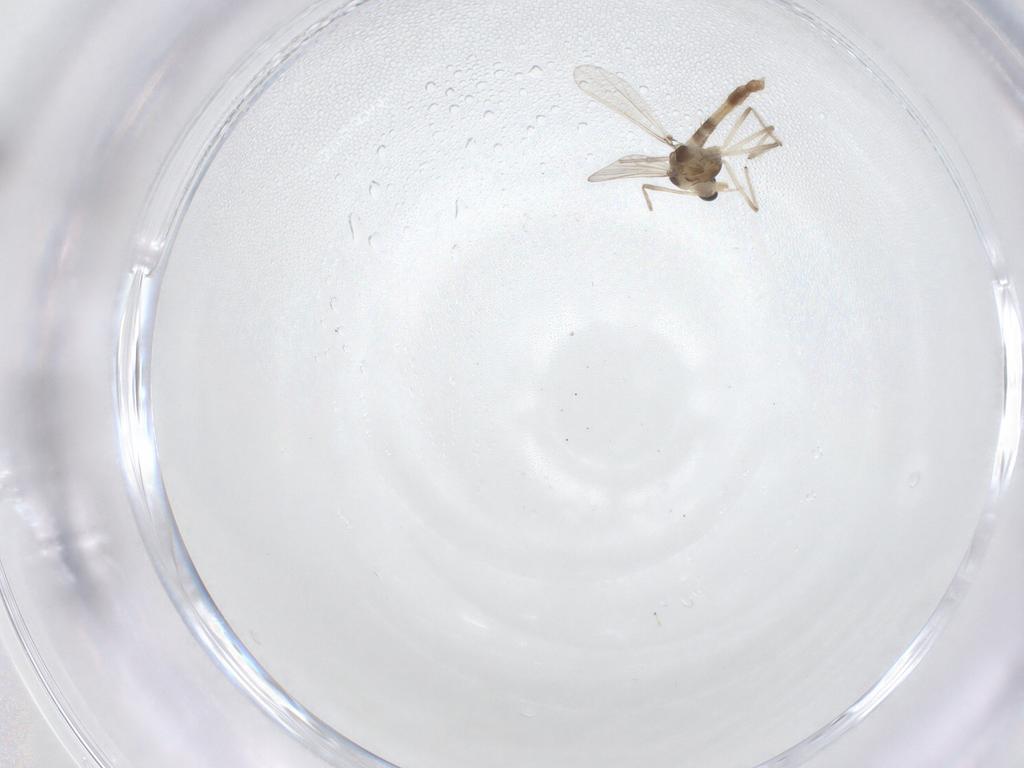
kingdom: Animalia
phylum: Arthropoda
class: Insecta
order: Diptera
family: Chironomidae
